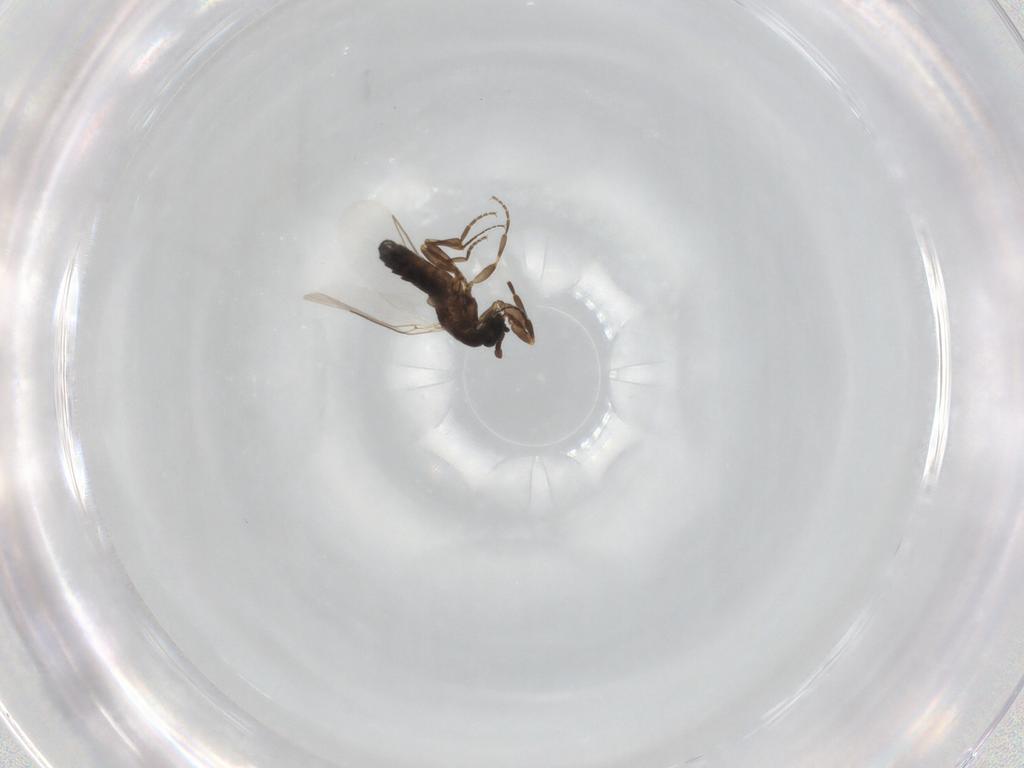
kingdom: Animalia
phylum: Arthropoda
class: Insecta
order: Diptera
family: Scatopsidae
